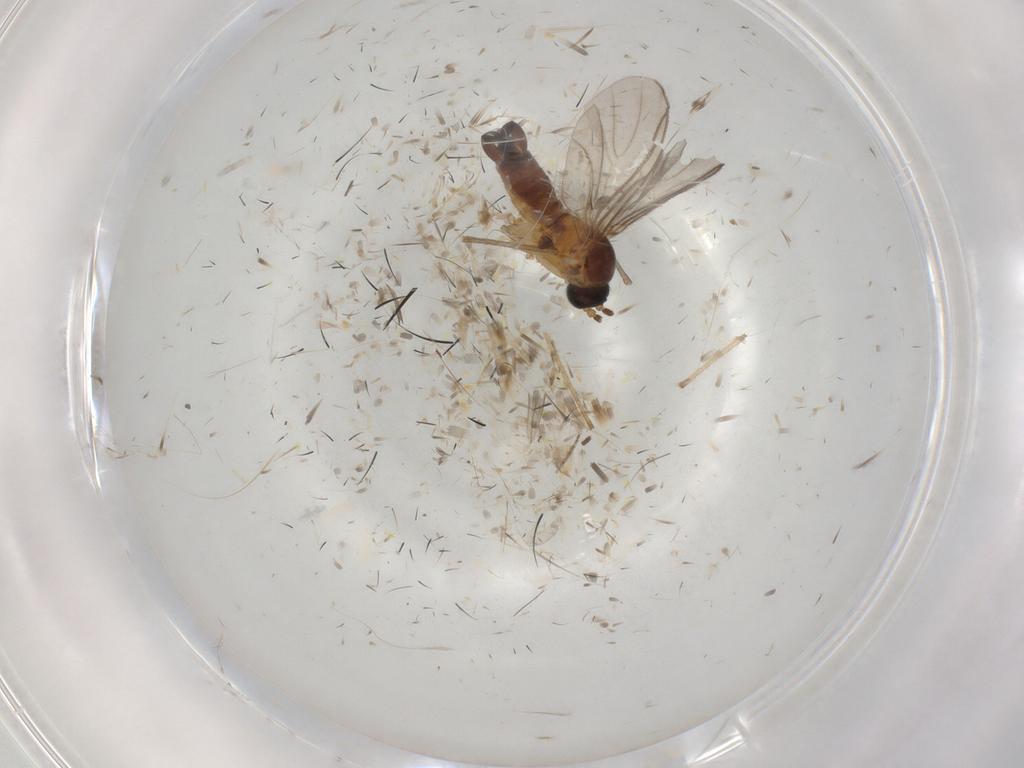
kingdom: Animalia
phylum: Arthropoda
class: Insecta
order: Diptera
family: Sciaridae
